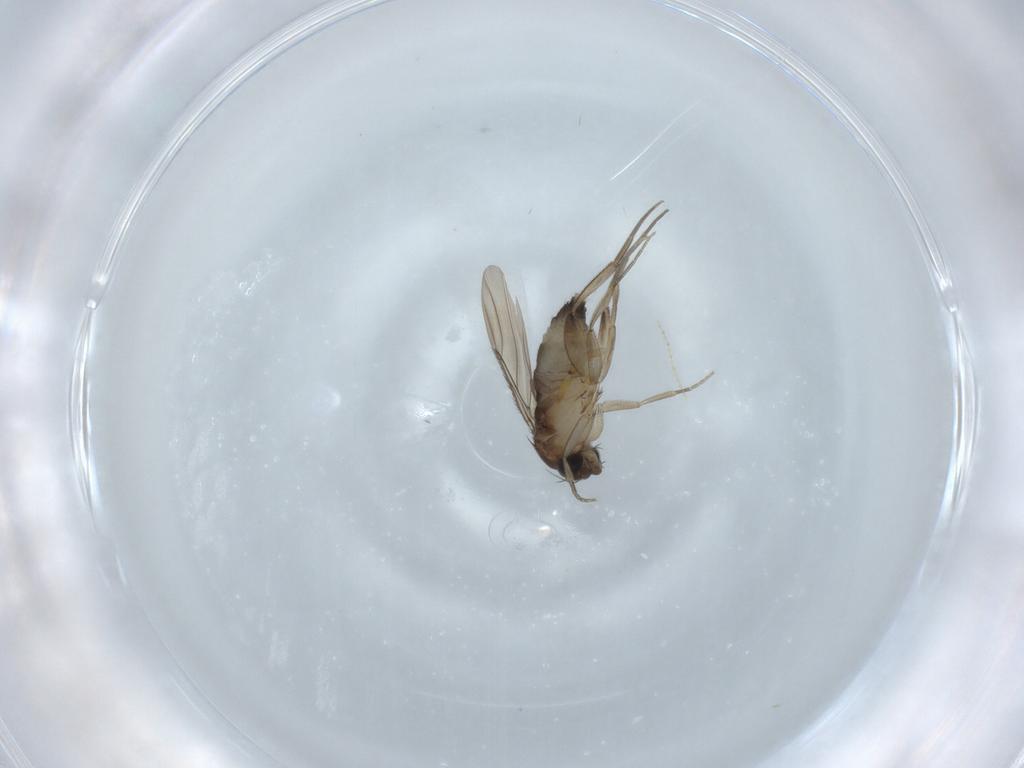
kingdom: Animalia
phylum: Arthropoda
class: Insecta
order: Diptera
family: Phoridae
